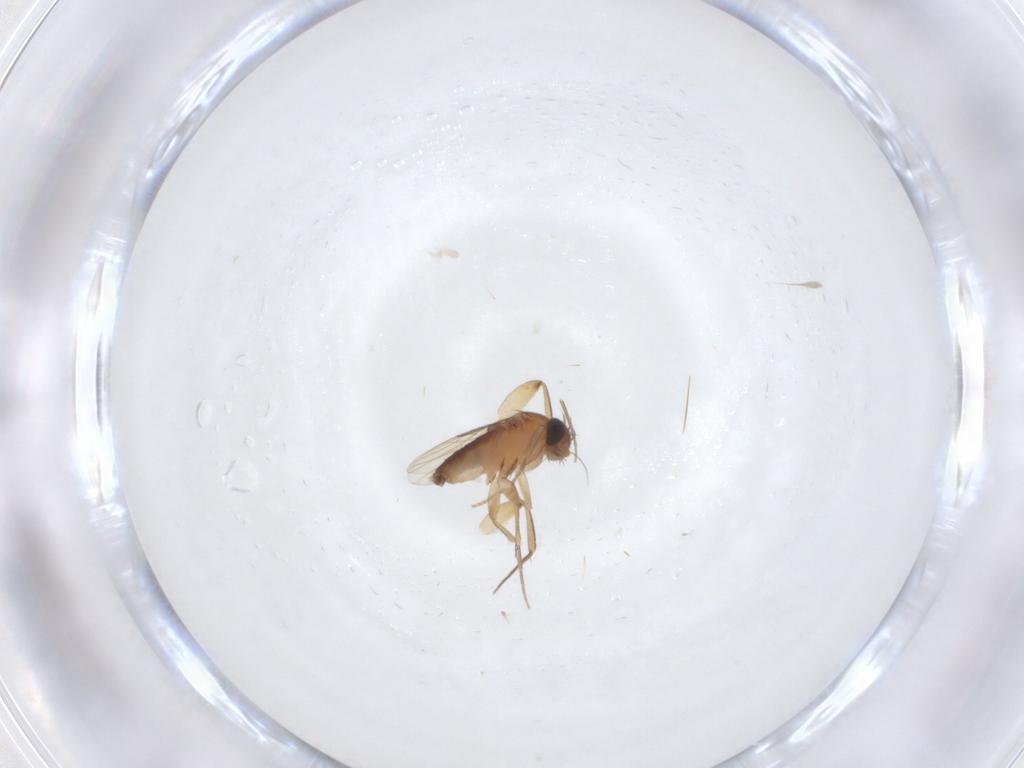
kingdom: Animalia
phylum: Arthropoda
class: Insecta
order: Diptera
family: Phoridae
